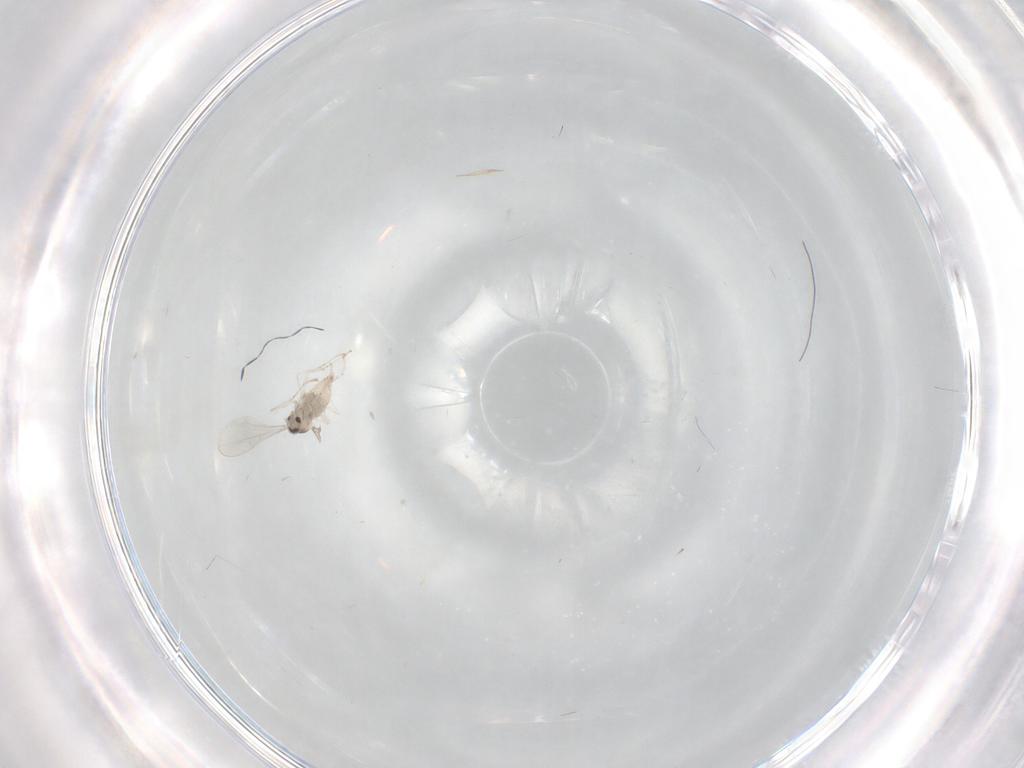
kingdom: Animalia
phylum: Arthropoda
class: Insecta
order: Diptera
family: Cecidomyiidae
